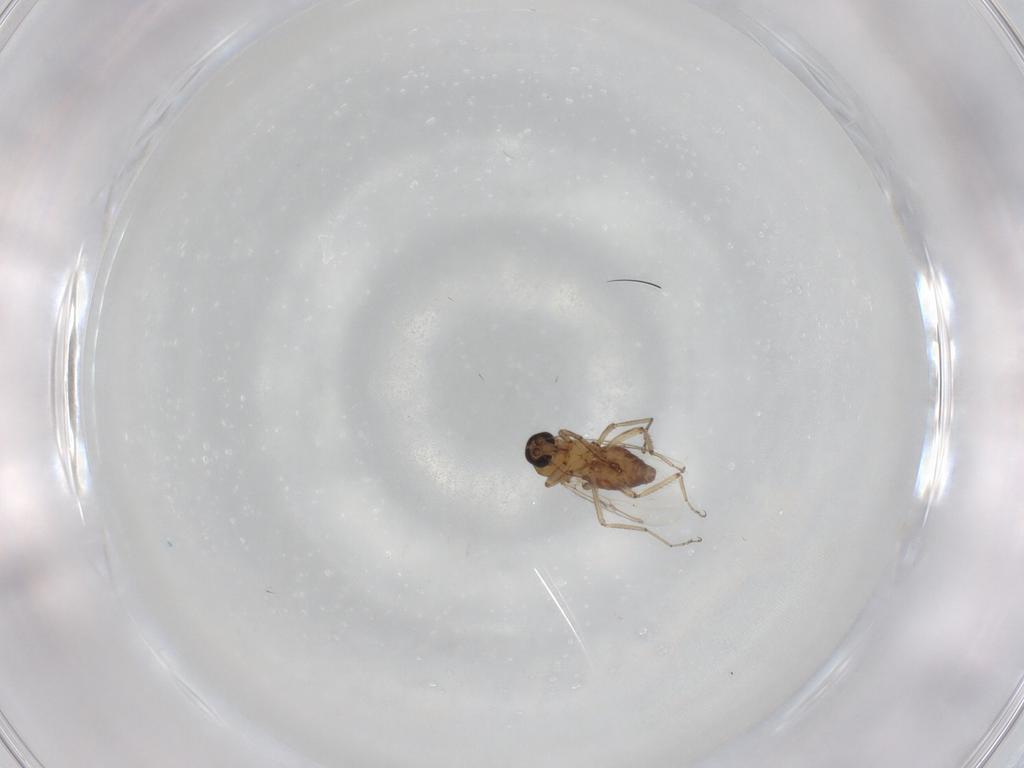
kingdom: Animalia
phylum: Arthropoda
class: Insecta
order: Diptera
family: Ceratopogonidae
